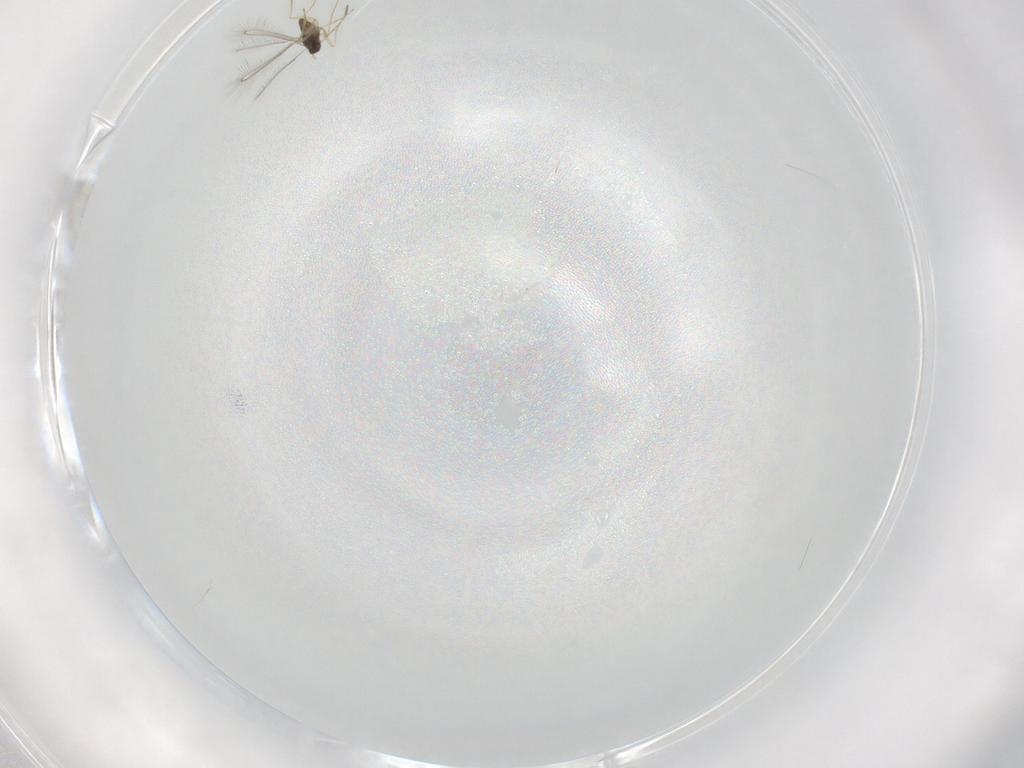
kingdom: Animalia
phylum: Arthropoda
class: Insecta
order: Hymenoptera
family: Mymaridae
